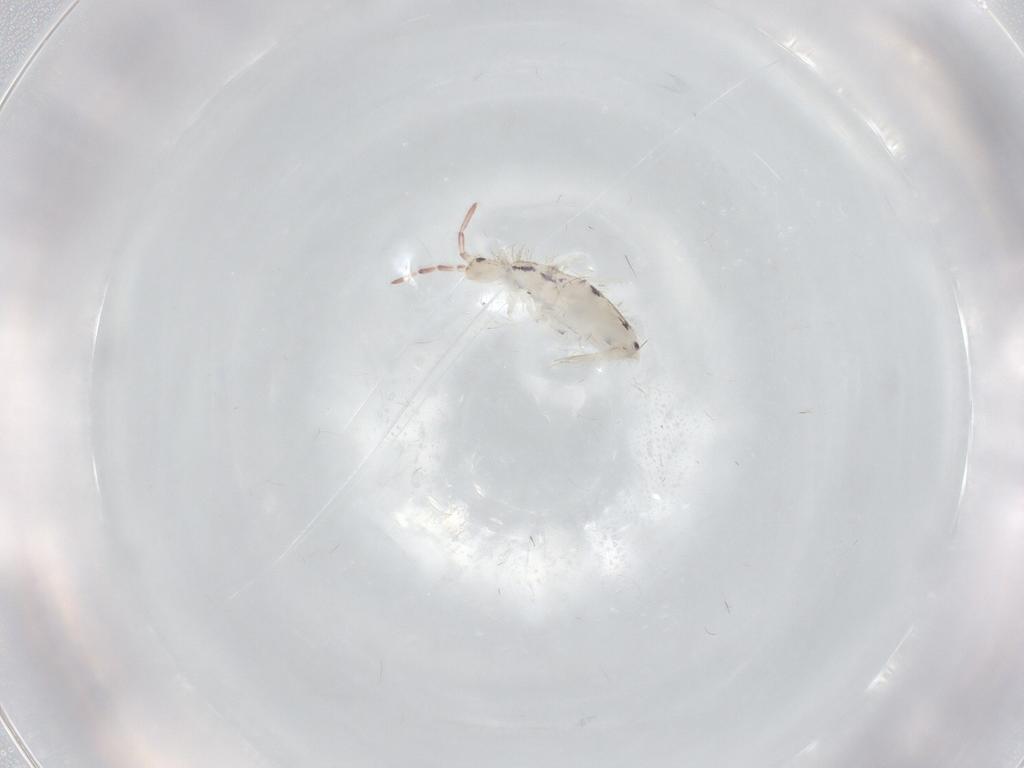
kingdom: Animalia
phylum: Arthropoda
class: Collembola
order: Entomobryomorpha
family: Entomobryidae
